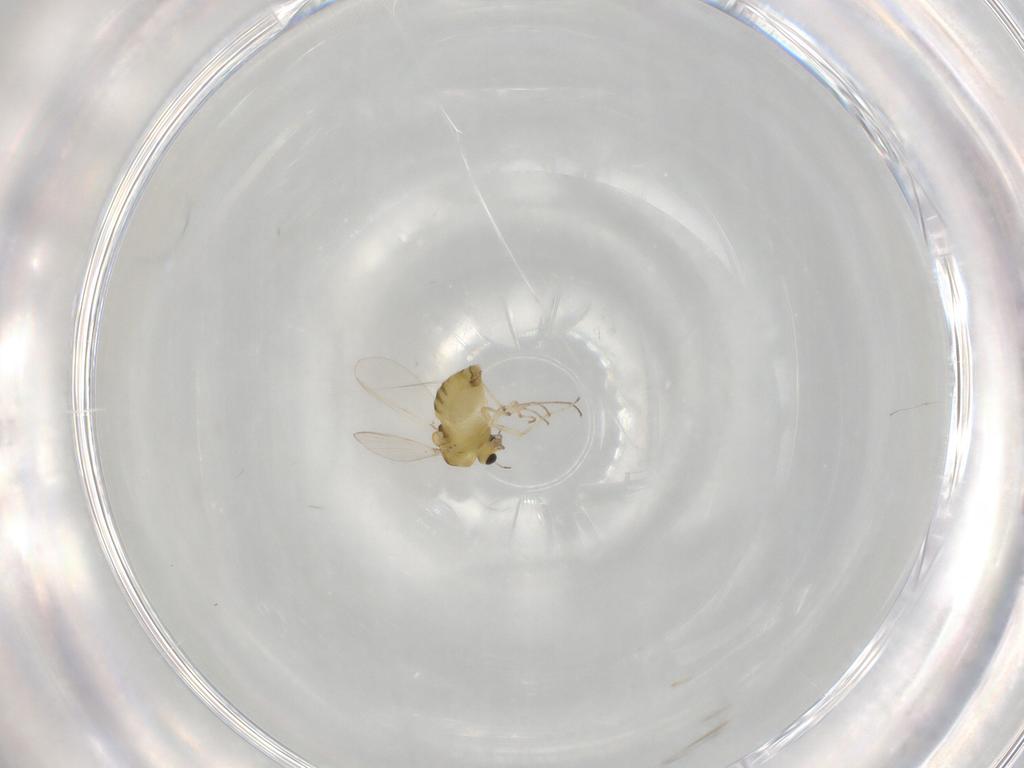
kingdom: Animalia
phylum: Arthropoda
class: Insecta
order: Diptera
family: Chironomidae
